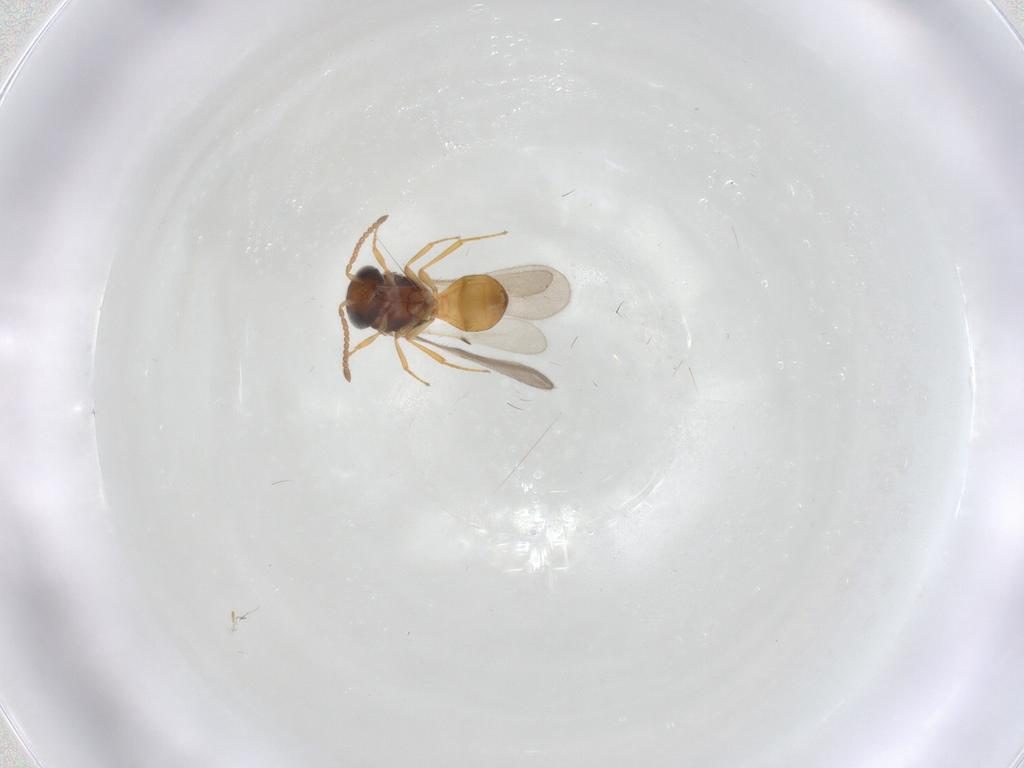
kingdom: Animalia
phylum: Arthropoda
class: Insecta
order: Hymenoptera
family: Scelionidae
